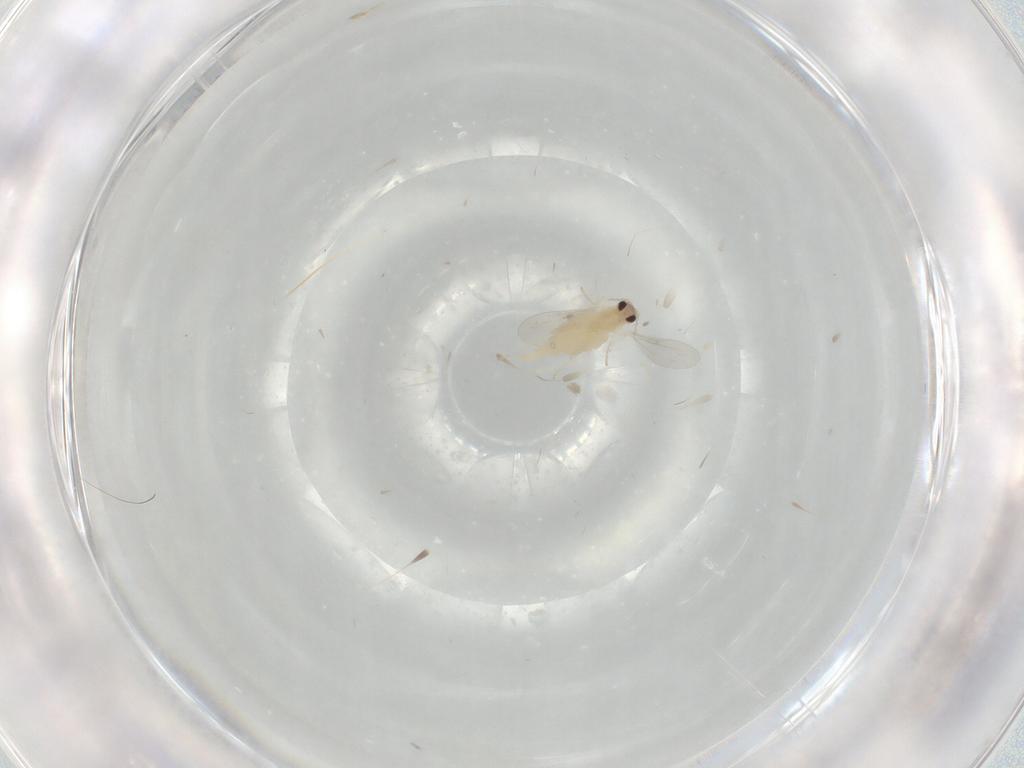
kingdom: Animalia
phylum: Arthropoda
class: Insecta
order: Diptera
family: Cecidomyiidae
